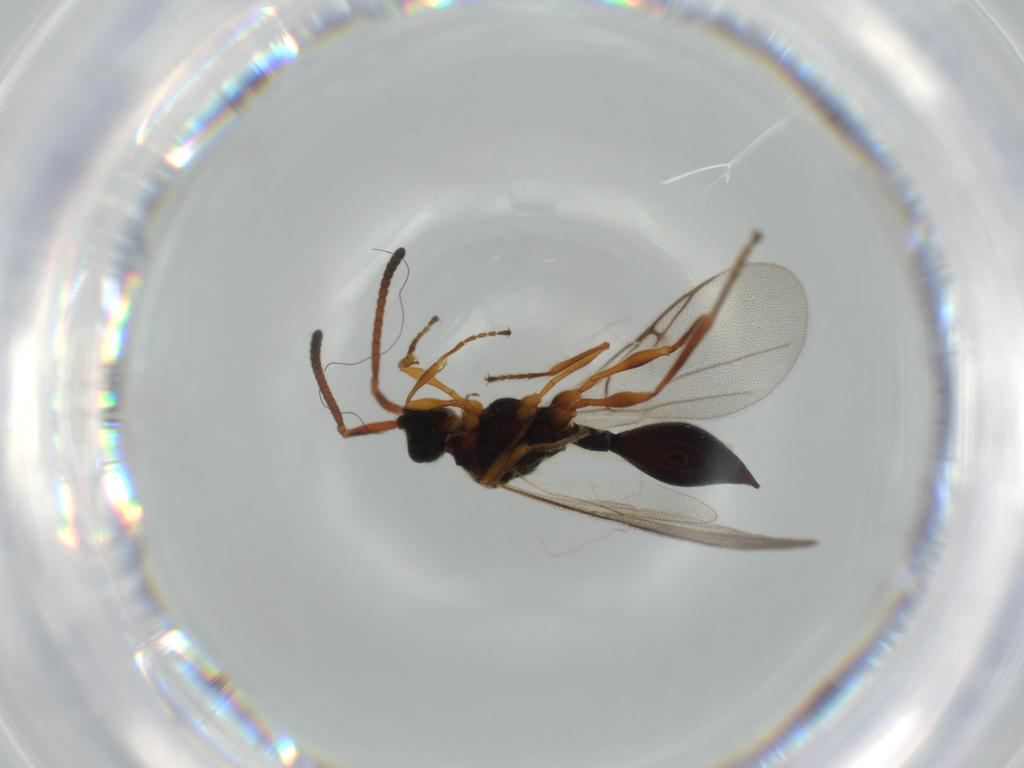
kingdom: Animalia
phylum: Arthropoda
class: Insecta
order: Hymenoptera
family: Diapriidae
